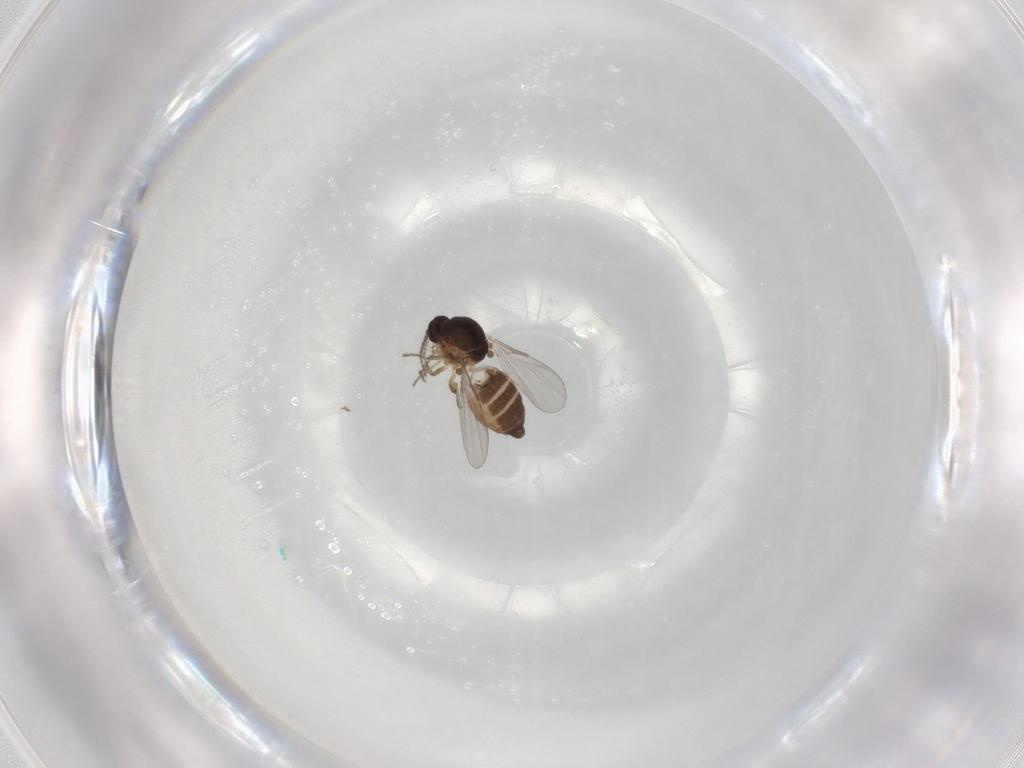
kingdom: Animalia
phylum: Arthropoda
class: Insecta
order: Diptera
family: Ceratopogonidae
